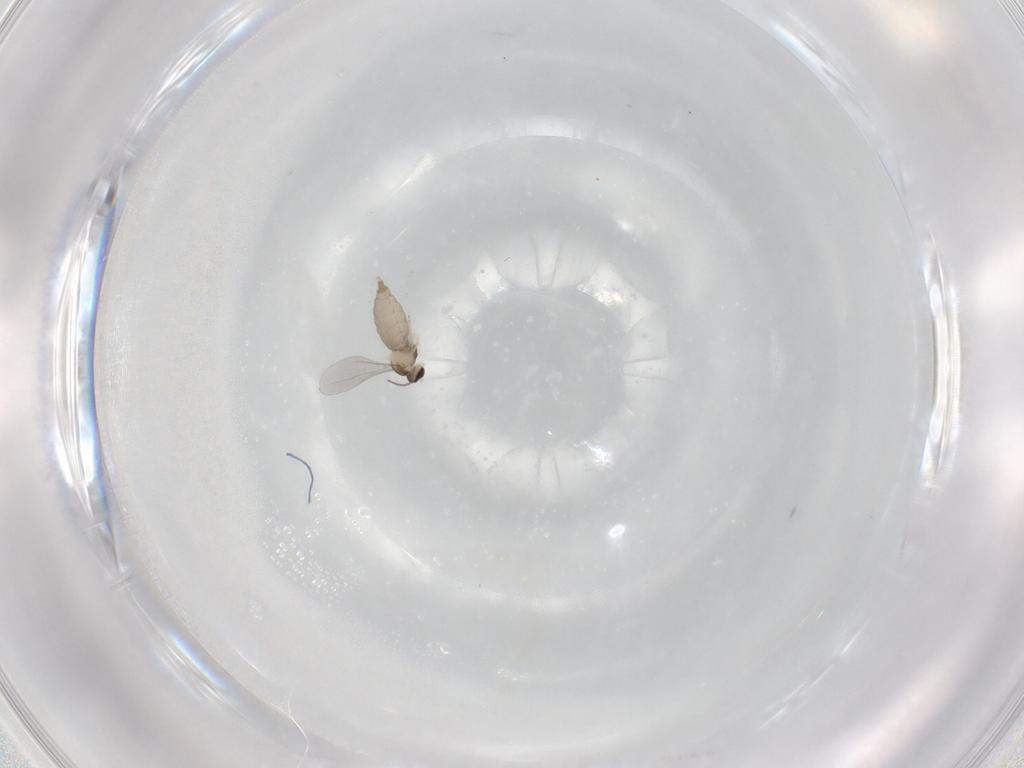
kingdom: Animalia
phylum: Arthropoda
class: Insecta
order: Diptera
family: Cecidomyiidae
